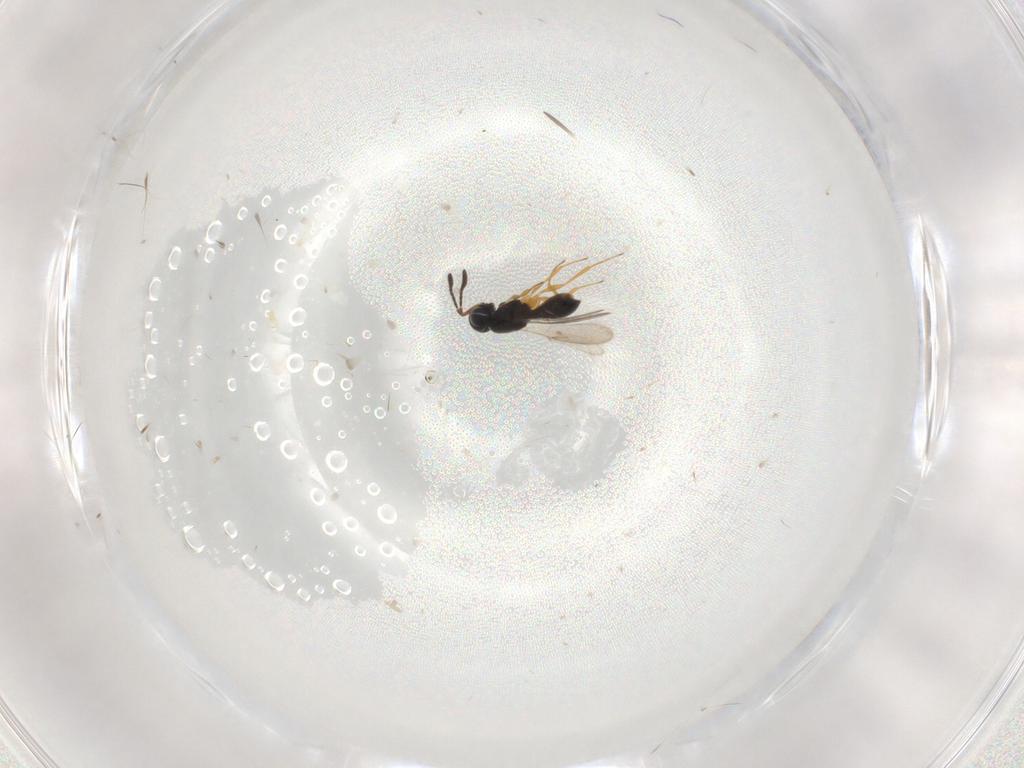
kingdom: Animalia
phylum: Arthropoda
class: Insecta
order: Hymenoptera
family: Scelionidae
